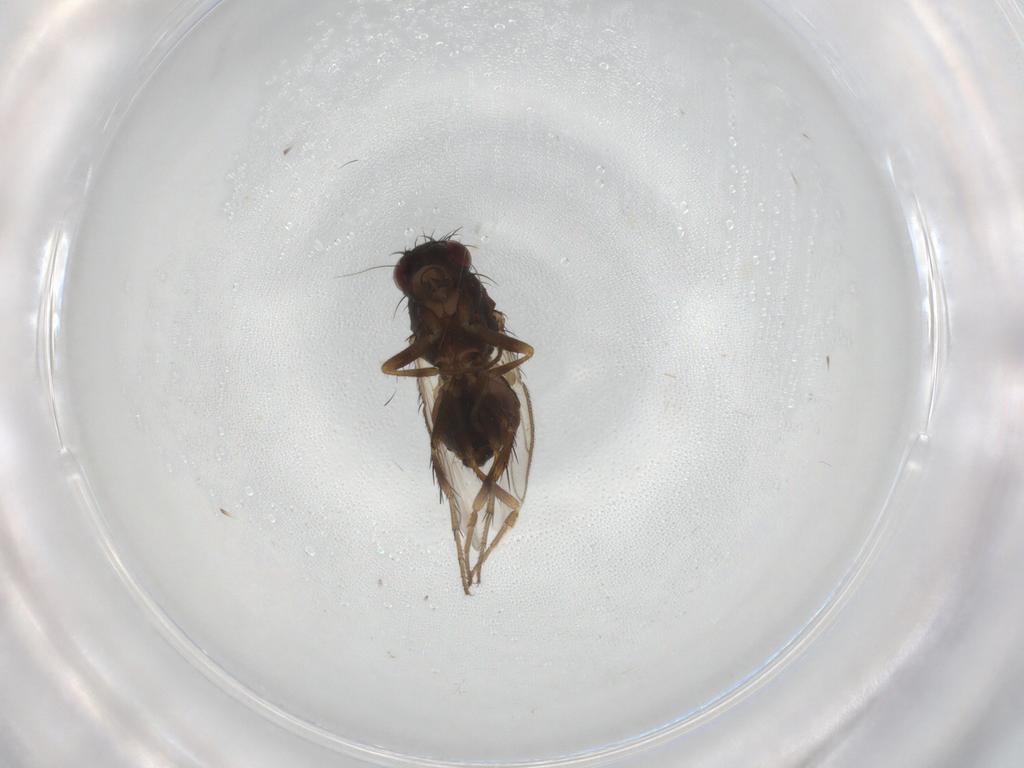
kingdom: Animalia
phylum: Arthropoda
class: Insecta
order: Diptera
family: Sphaeroceridae
